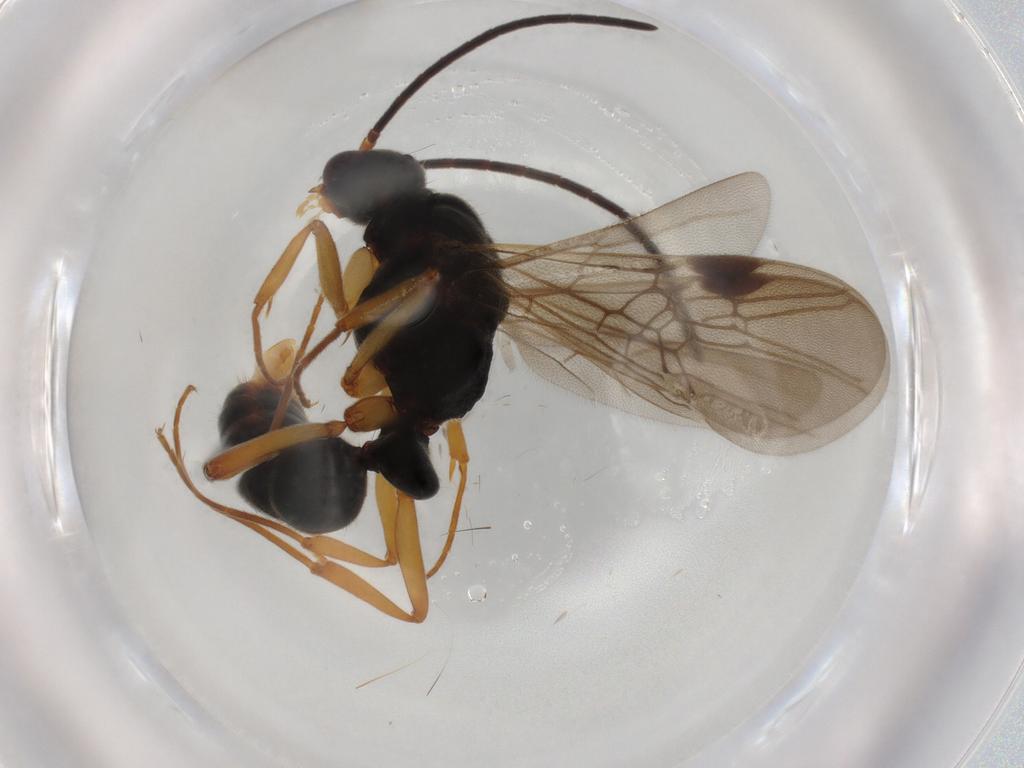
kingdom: Animalia
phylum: Arthropoda
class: Insecta
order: Hymenoptera
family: Formicidae
